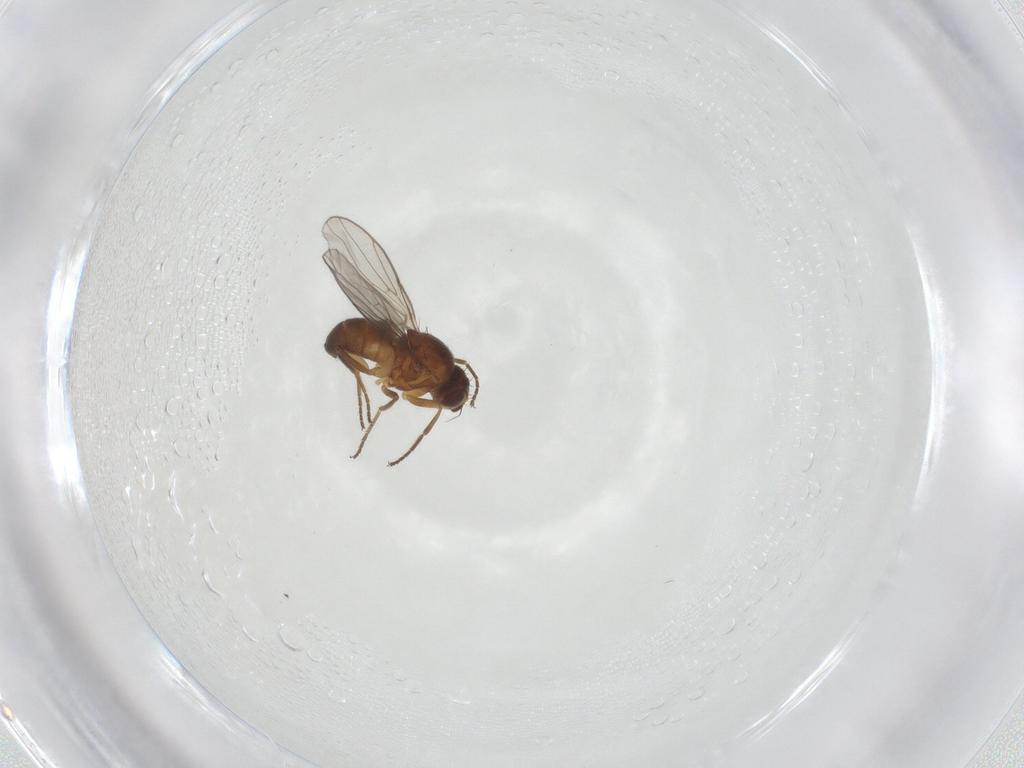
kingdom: Animalia
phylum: Arthropoda
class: Insecta
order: Diptera
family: Chloropidae
